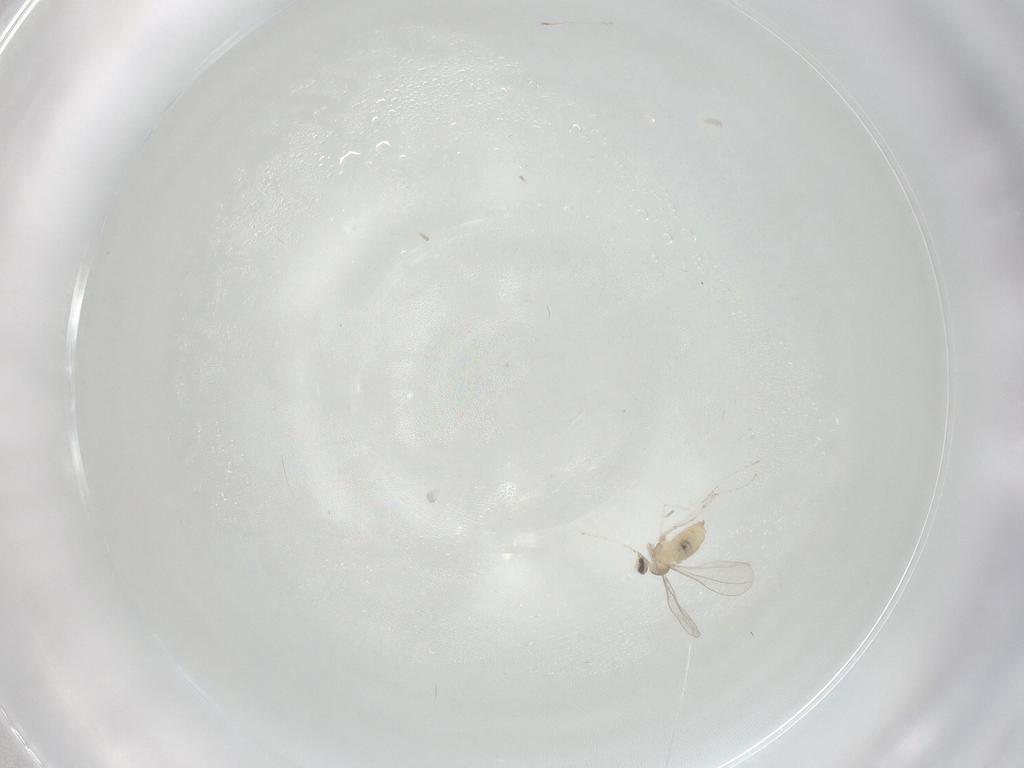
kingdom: Animalia
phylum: Arthropoda
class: Insecta
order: Diptera
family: Cecidomyiidae
